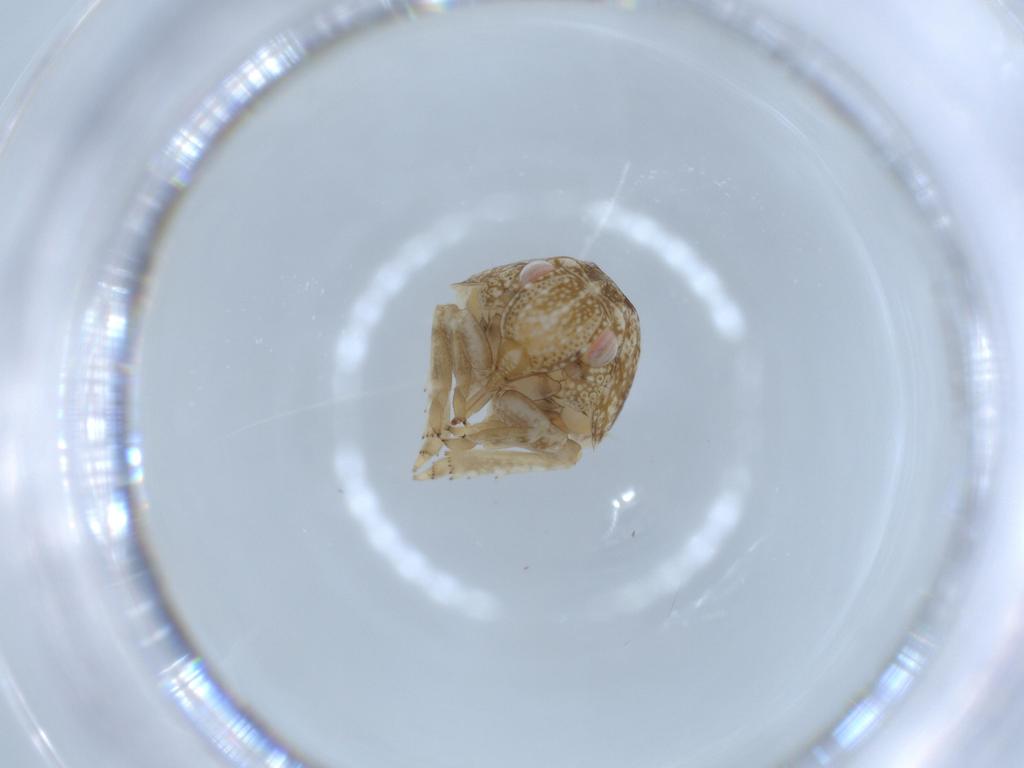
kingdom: Animalia
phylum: Arthropoda
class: Insecta
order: Hemiptera
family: Acanaloniidae
